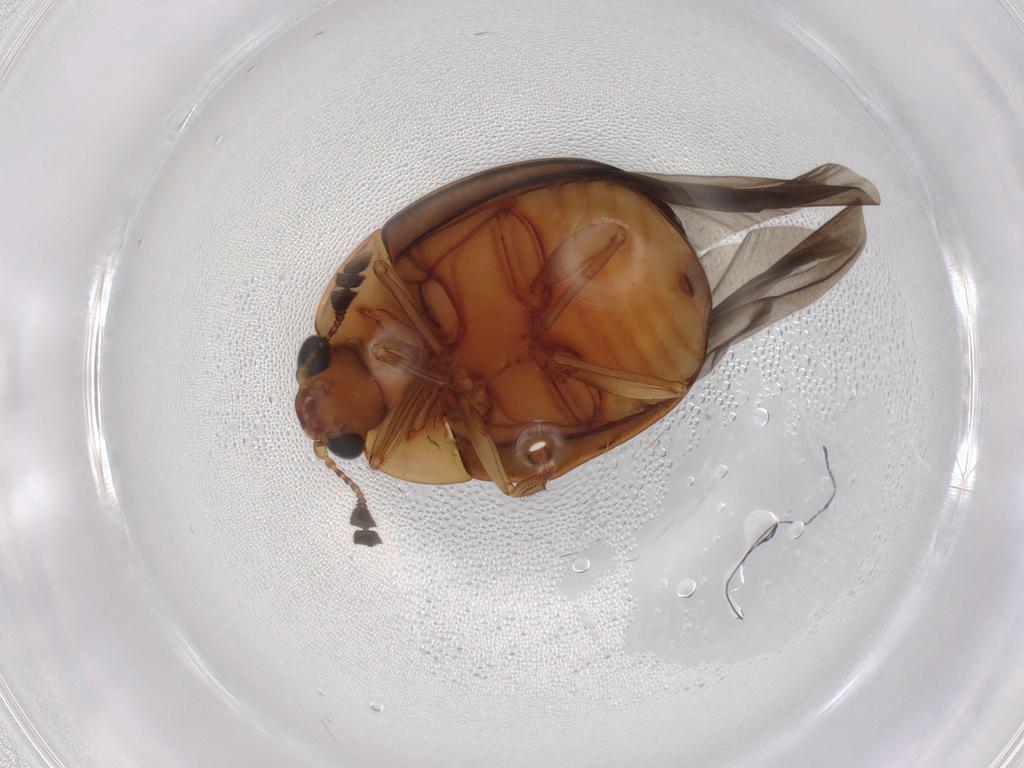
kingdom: Animalia
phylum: Arthropoda
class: Insecta
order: Coleoptera
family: Nitidulidae
